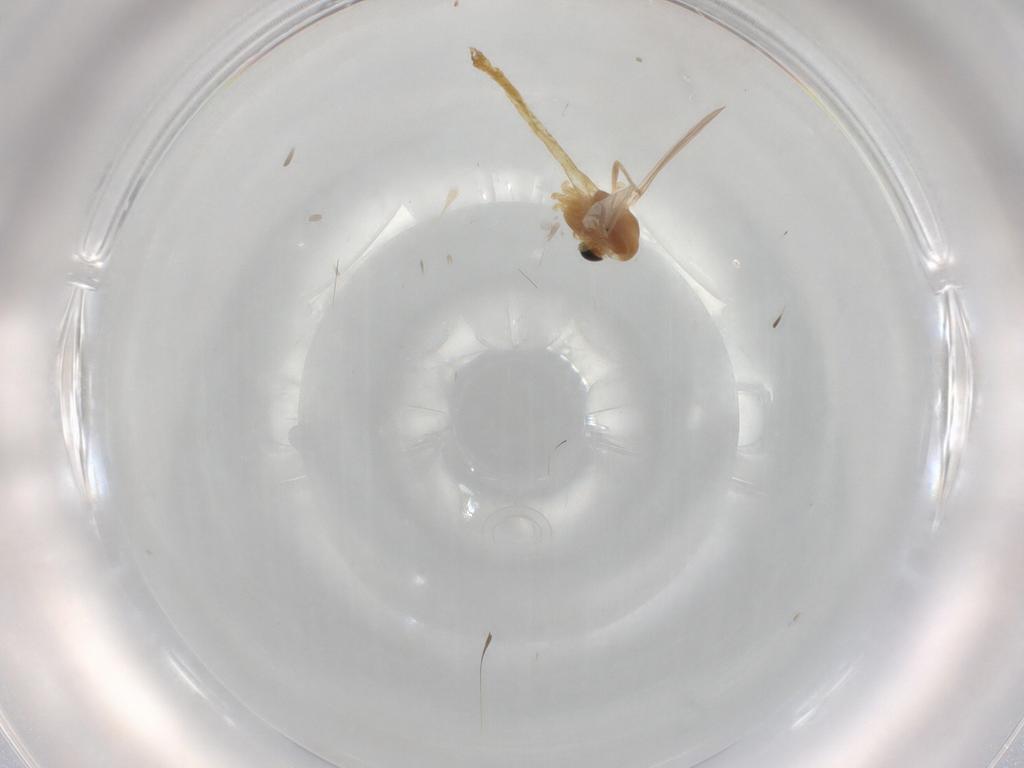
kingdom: Animalia
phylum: Arthropoda
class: Insecta
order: Diptera
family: Chironomidae
